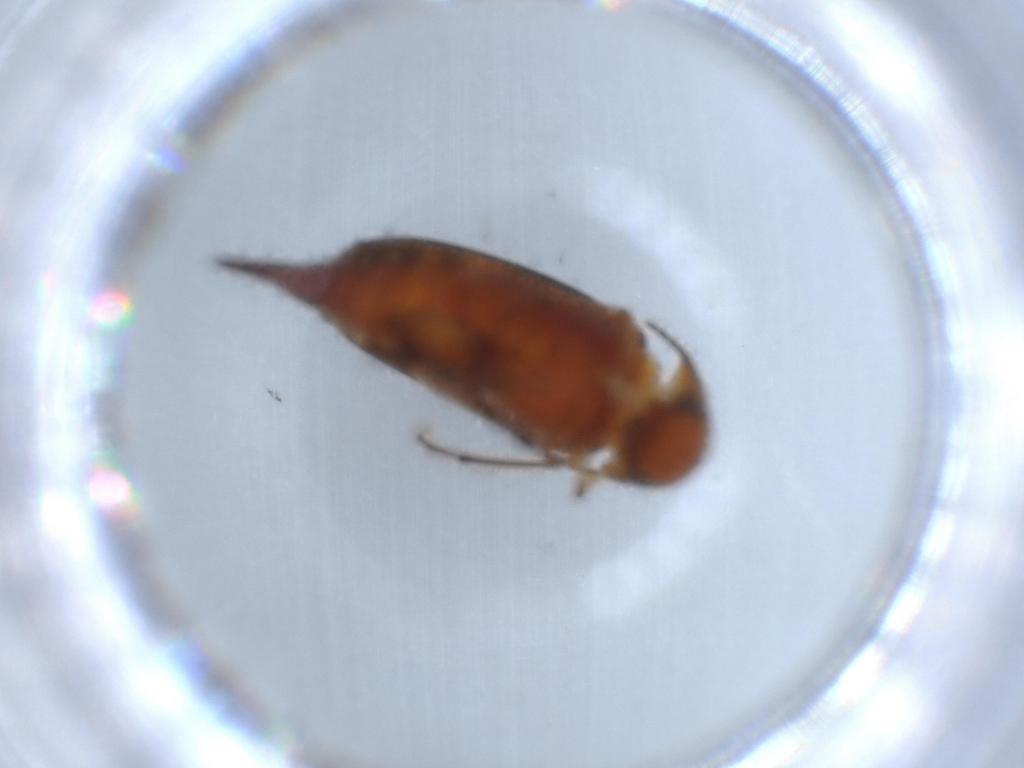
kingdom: Animalia
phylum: Arthropoda
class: Insecta
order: Coleoptera
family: Mordellidae
